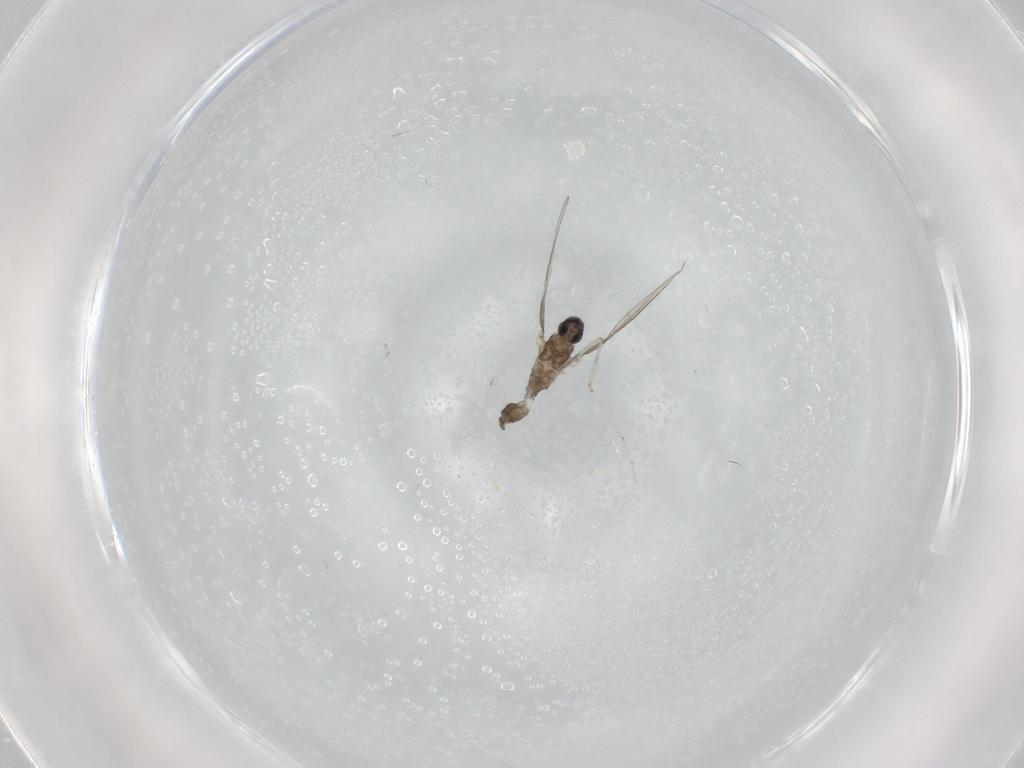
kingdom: Animalia
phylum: Arthropoda
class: Insecta
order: Diptera
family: Cecidomyiidae
